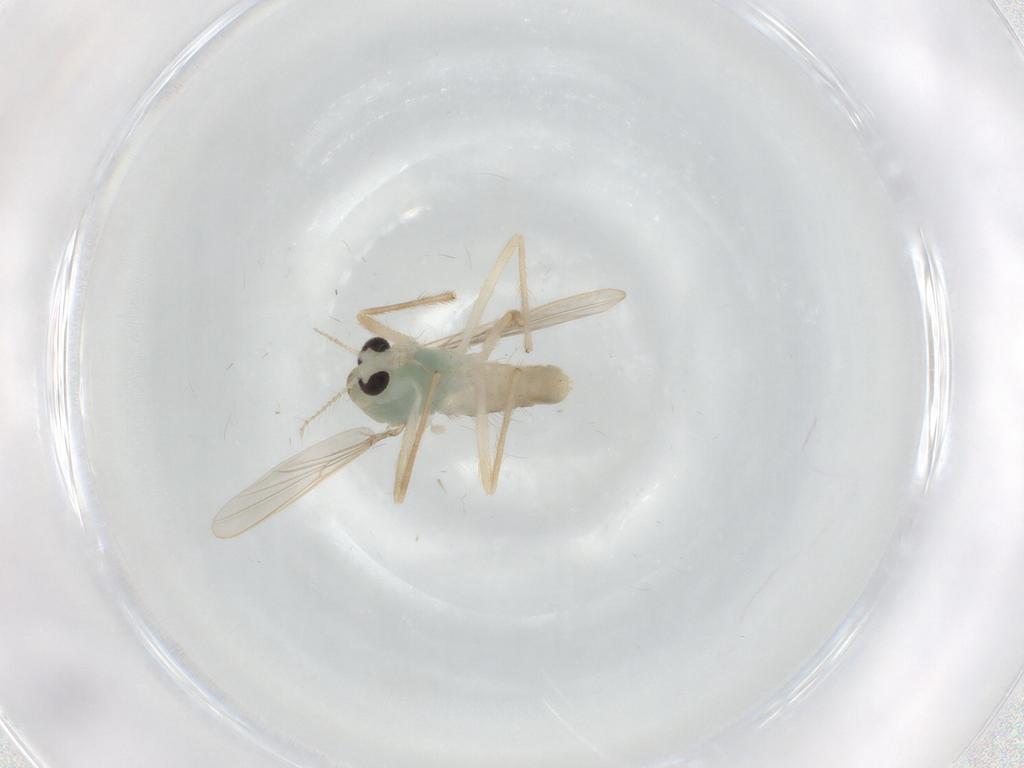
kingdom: Animalia
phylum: Arthropoda
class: Insecta
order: Diptera
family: Chironomidae
